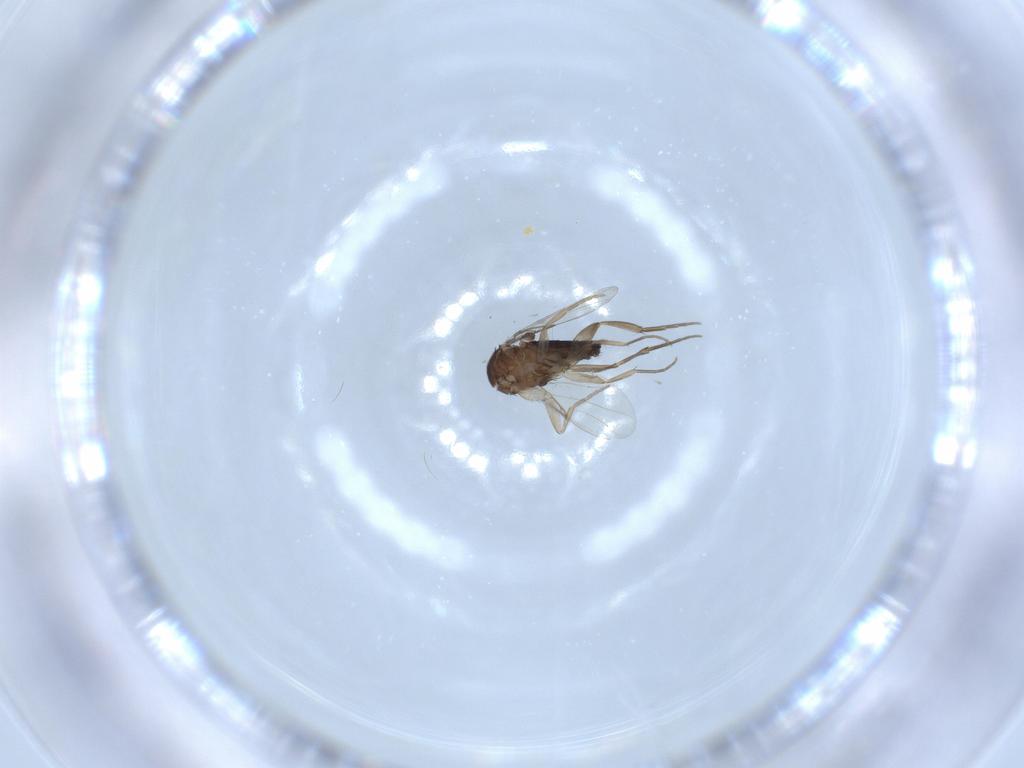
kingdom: Animalia
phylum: Arthropoda
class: Insecta
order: Diptera
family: Phoridae
